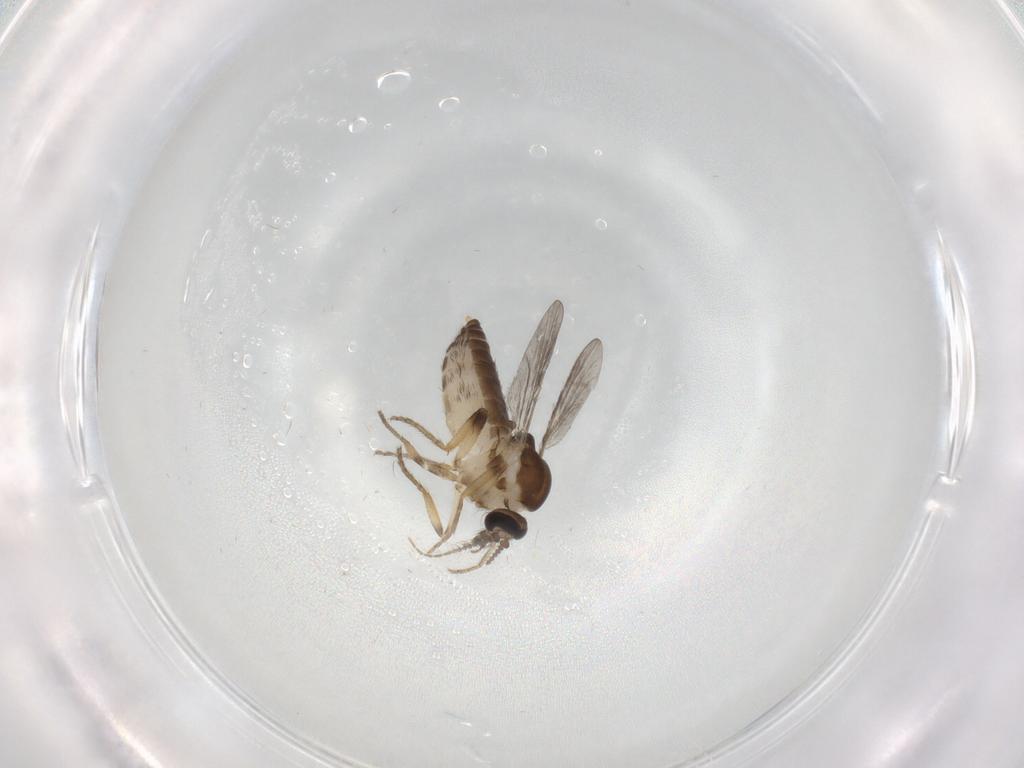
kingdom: Animalia
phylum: Arthropoda
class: Insecta
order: Diptera
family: Ceratopogonidae
